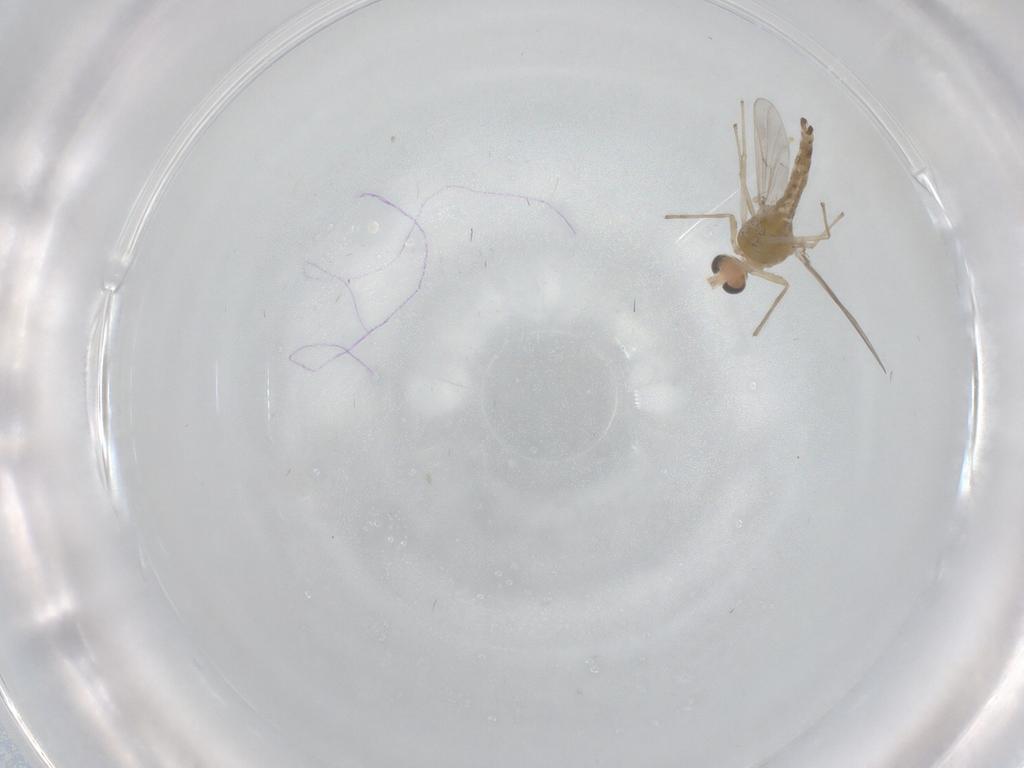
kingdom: Animalia
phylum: Arthropoda
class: Insecta
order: Diptera
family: Chironomidae
